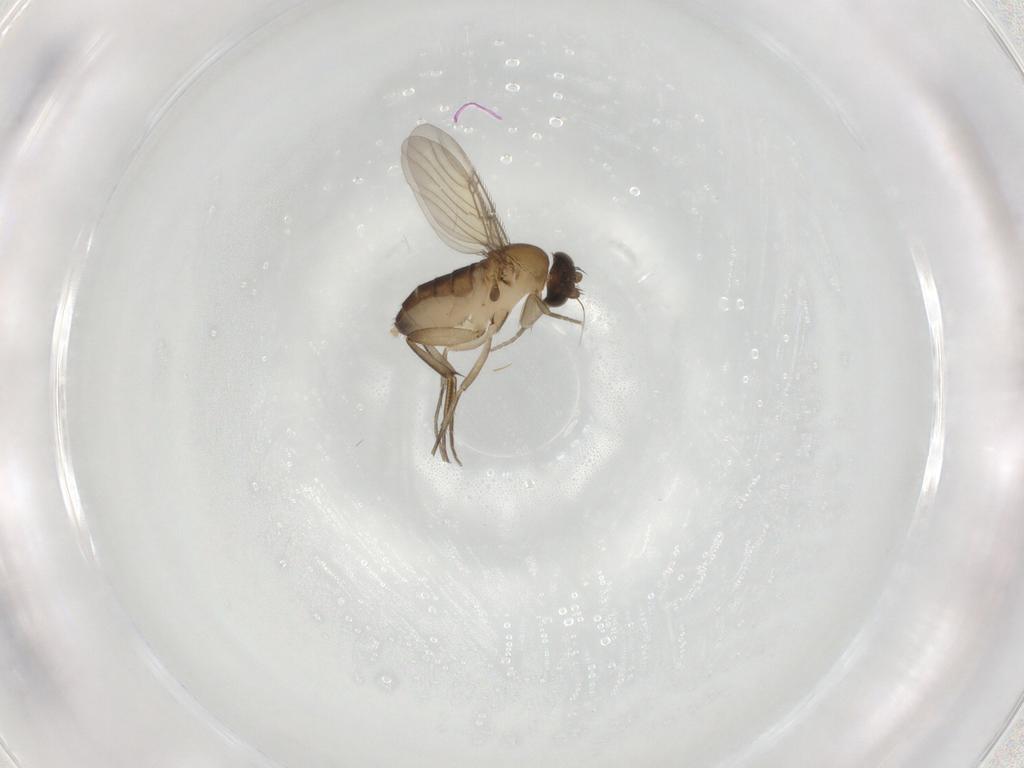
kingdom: Animalia
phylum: Arthropoda
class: Insecta
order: Diptera
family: Phoridae
